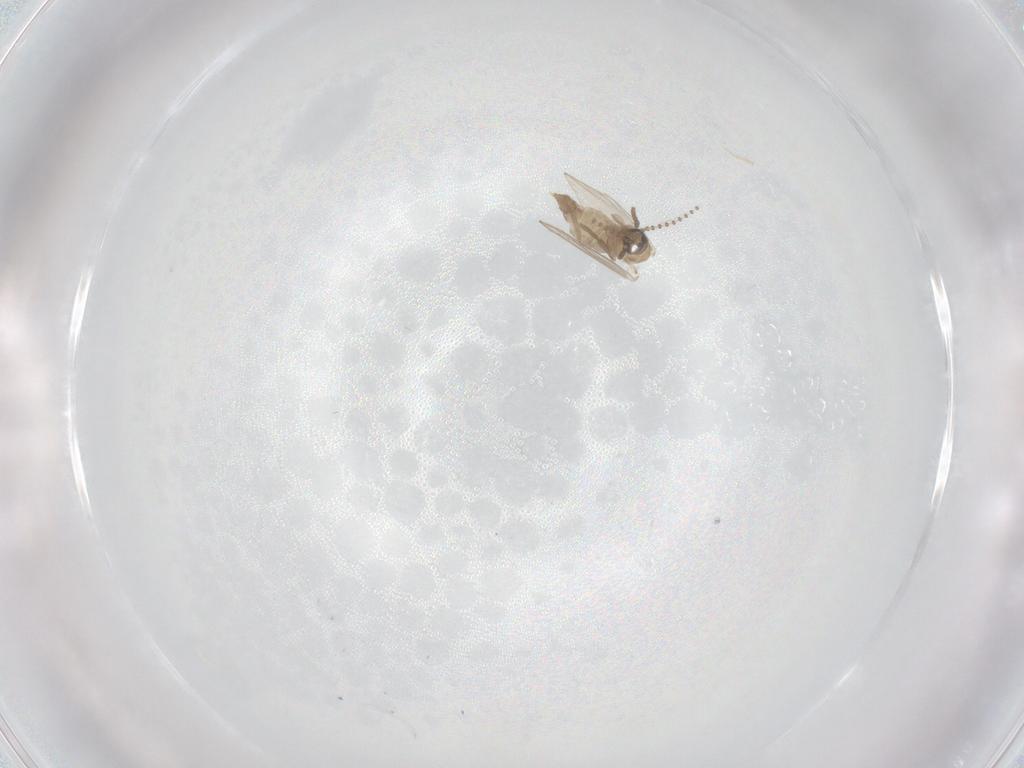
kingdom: Animalia
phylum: Arthropoda
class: Insecta
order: Diptera
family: Psychodidae
